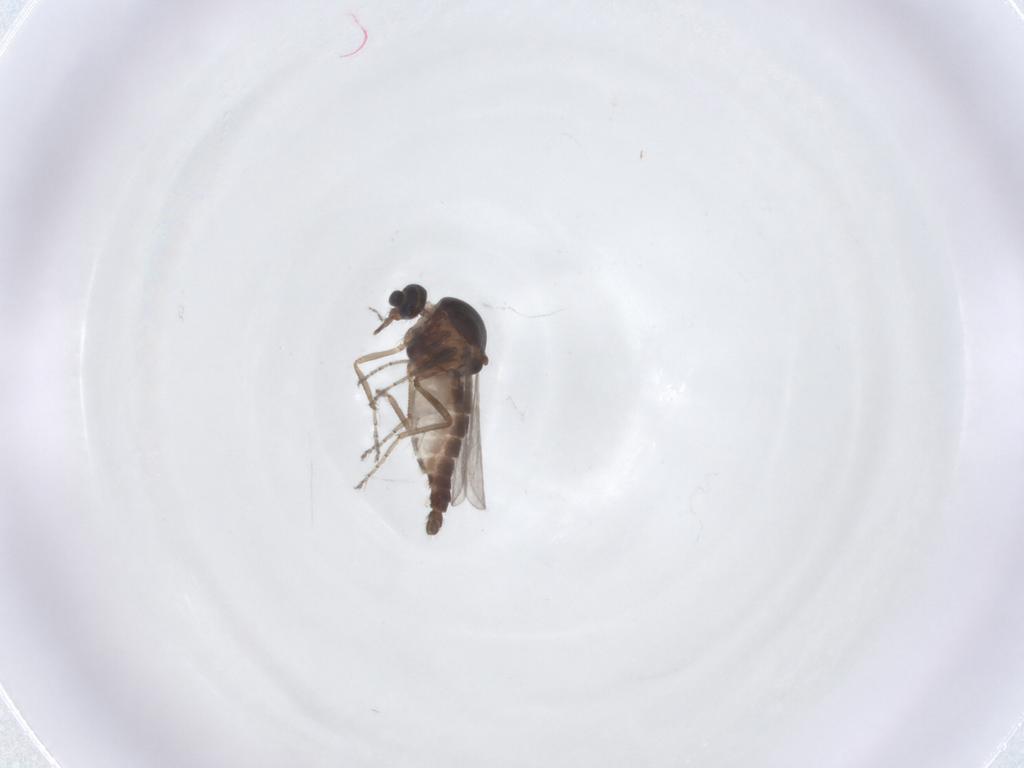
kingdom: Animalia
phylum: Arthropoda
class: Insecta
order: Diptera
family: Ceratopogonidae
